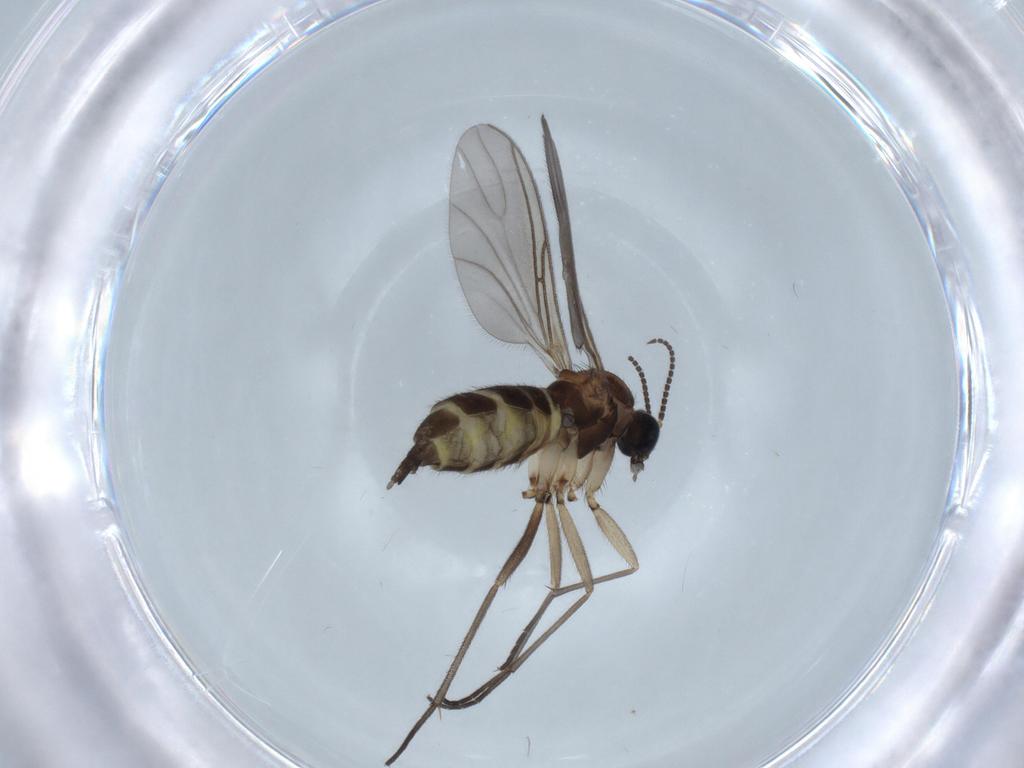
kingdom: Animalia
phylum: Arthropoda
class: Insecta
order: Diptera
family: Sciaridae
